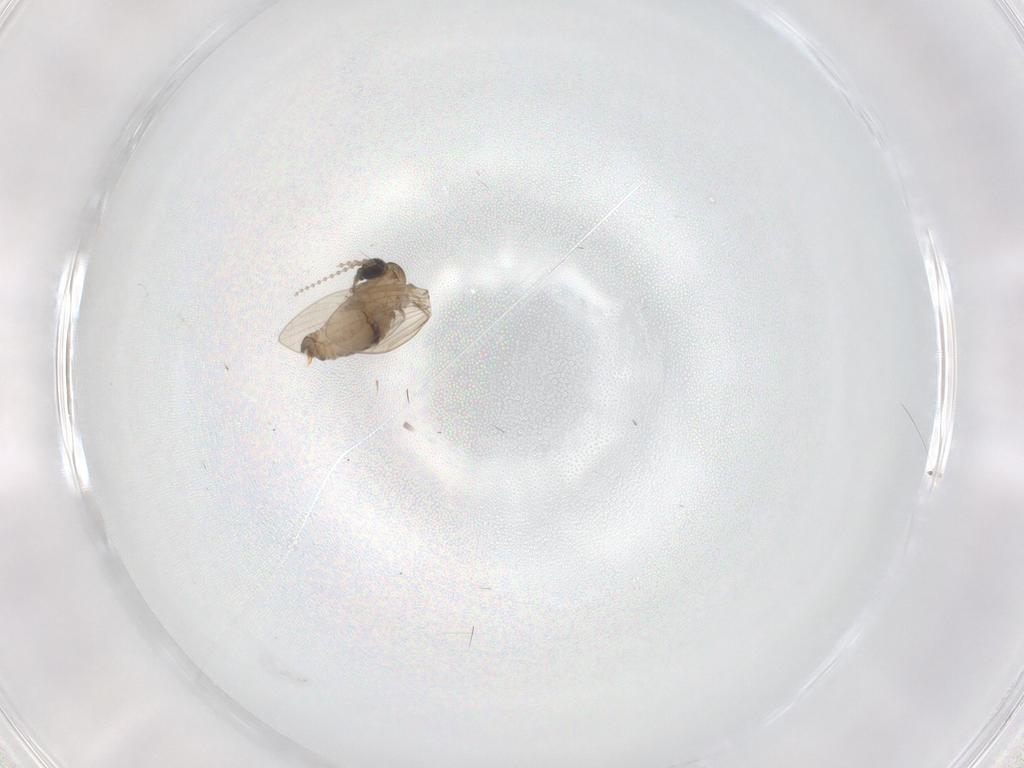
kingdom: Animalia
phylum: Arthropoda
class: Insecta
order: Diptera
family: Psychodidae
